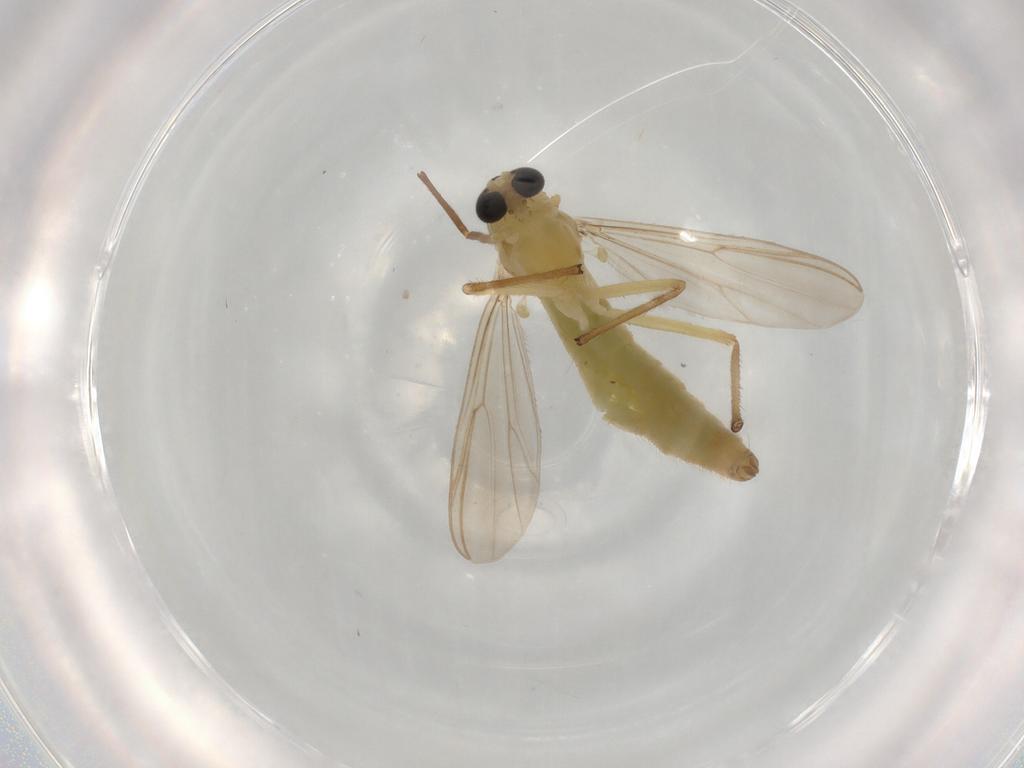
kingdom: Animalia
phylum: Arthropoda
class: Insecta
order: Diptera
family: Chironomidae
